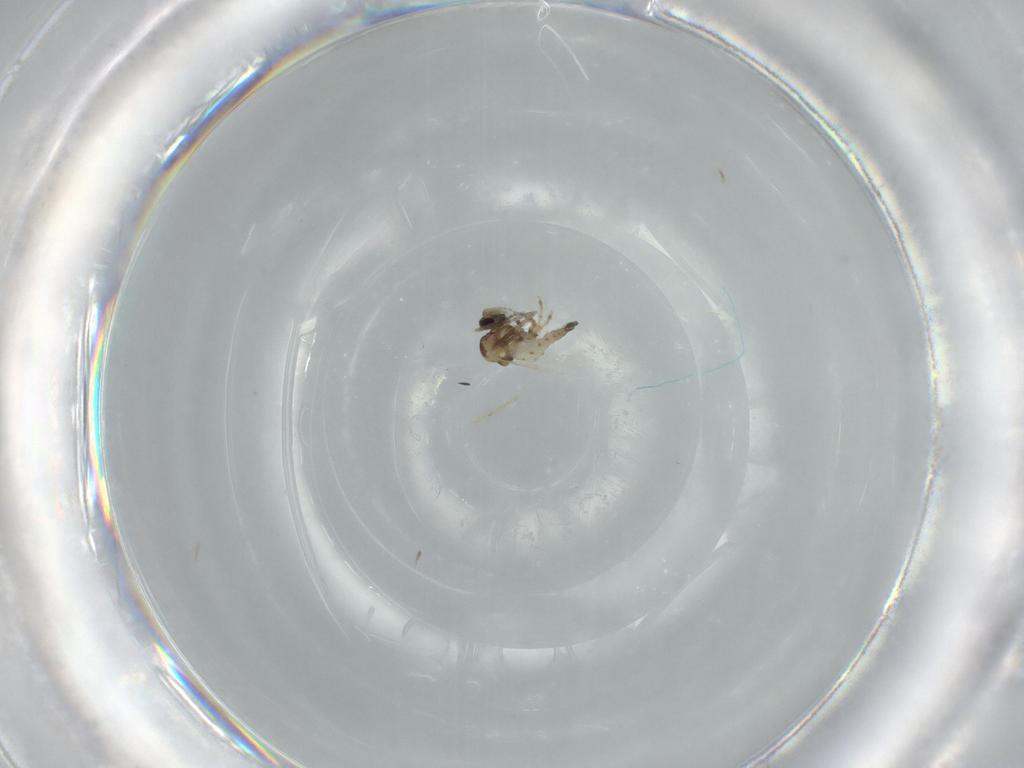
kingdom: Animalia
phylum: Arthropoda
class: Insecta
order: Diptera
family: Ceratopogonidae
